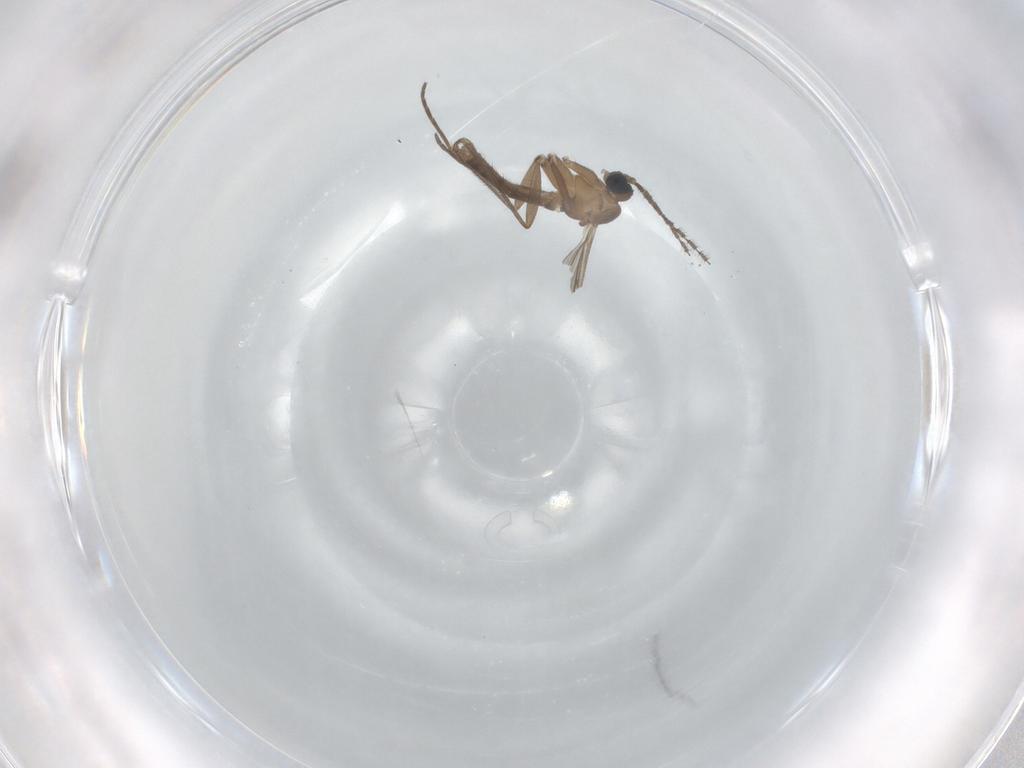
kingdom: Animalia
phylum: Arthropoda
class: Insecta
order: Diptera
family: Sciaridae
